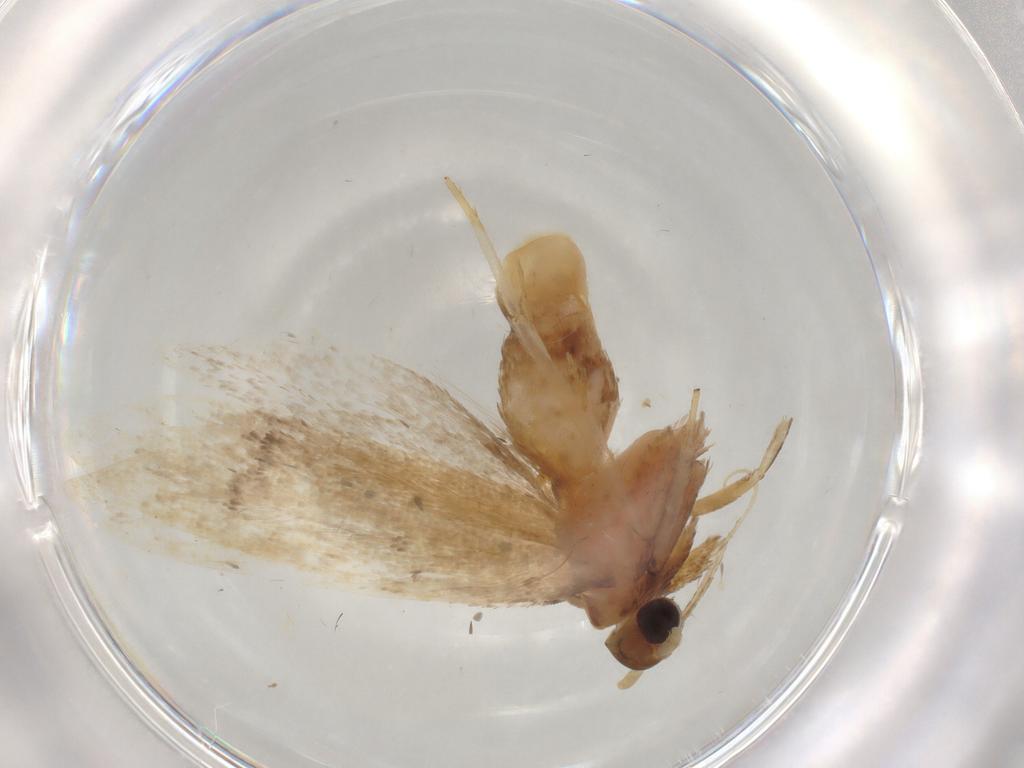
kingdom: Animalia
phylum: Arthropoda
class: Insecta
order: Lepidoptera
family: Lecithoceridae
